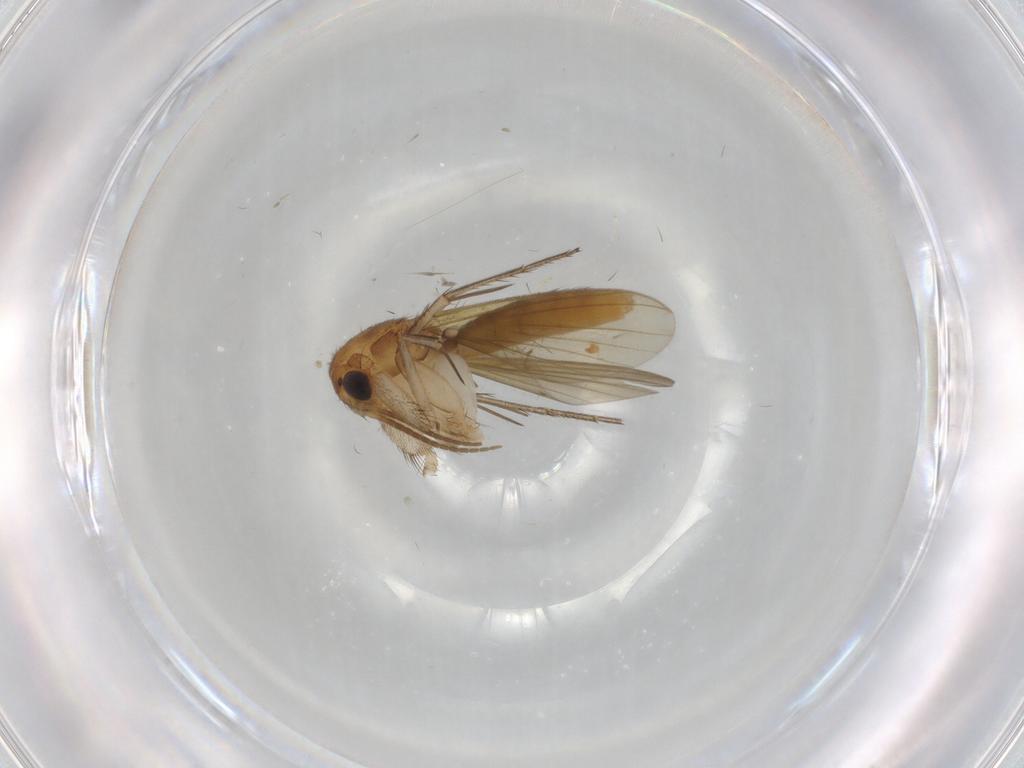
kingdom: Animalia
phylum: Arthropoda
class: Insecta
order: Diptera
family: Mycetophilidae
